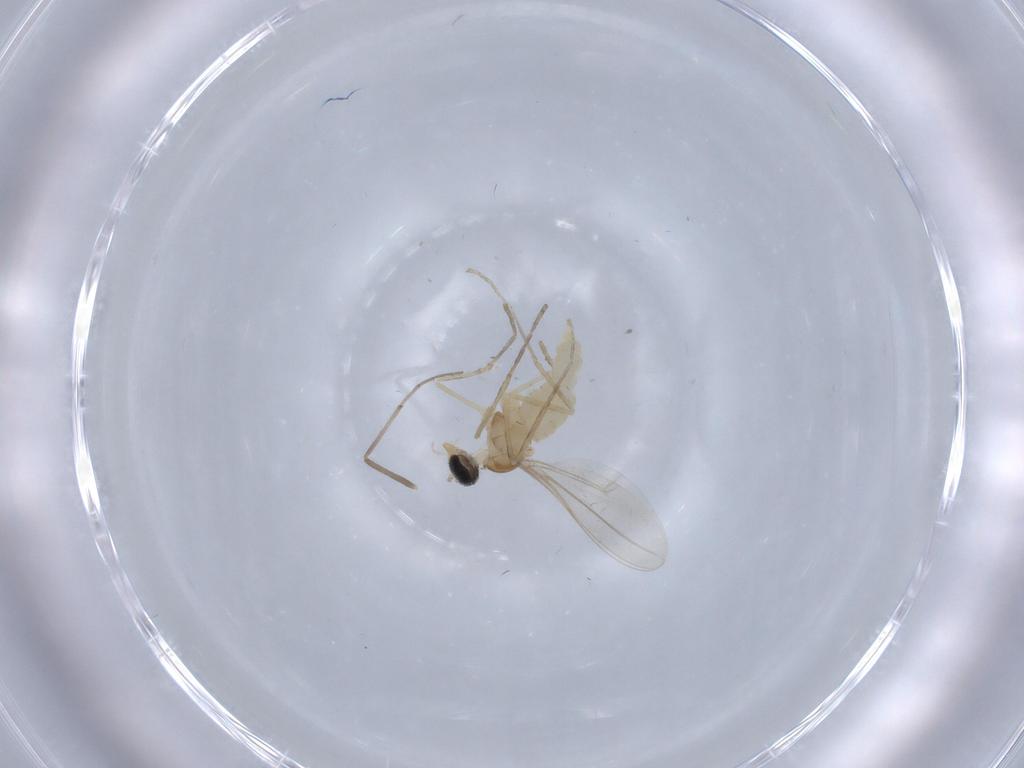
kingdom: Animalia
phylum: Arthropoda
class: Insecta
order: Diptera
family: Cecidomyiidae
